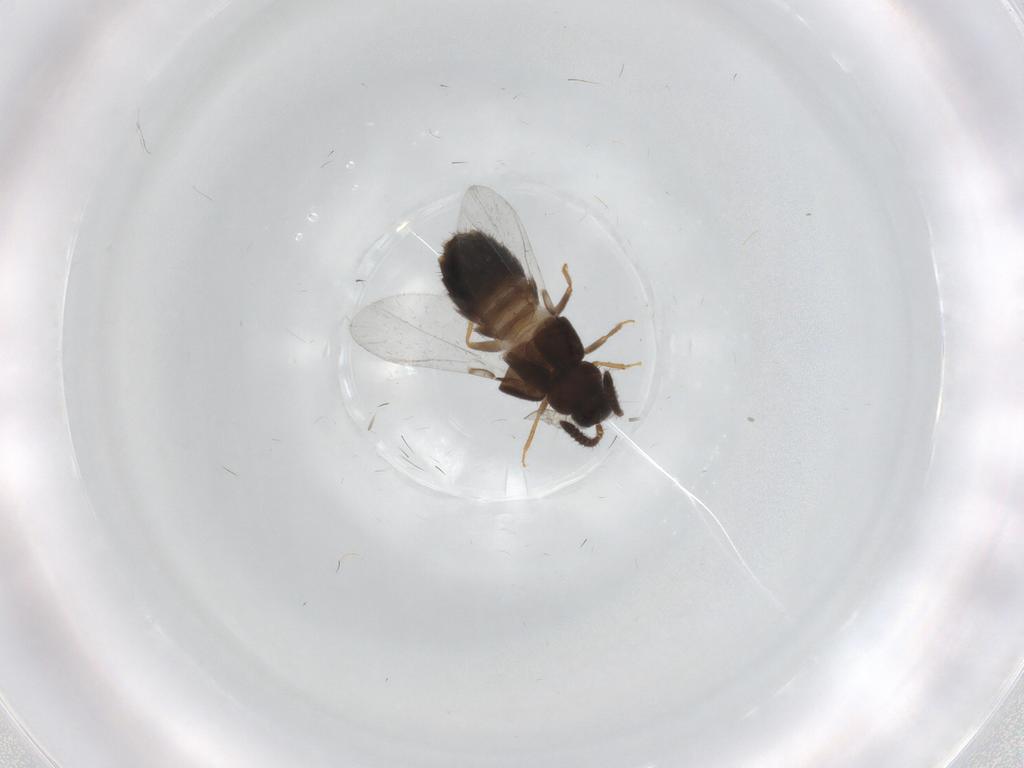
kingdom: Animalia
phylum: Arthropoda
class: Insecta
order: Coleoptera
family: Staphylinidae
